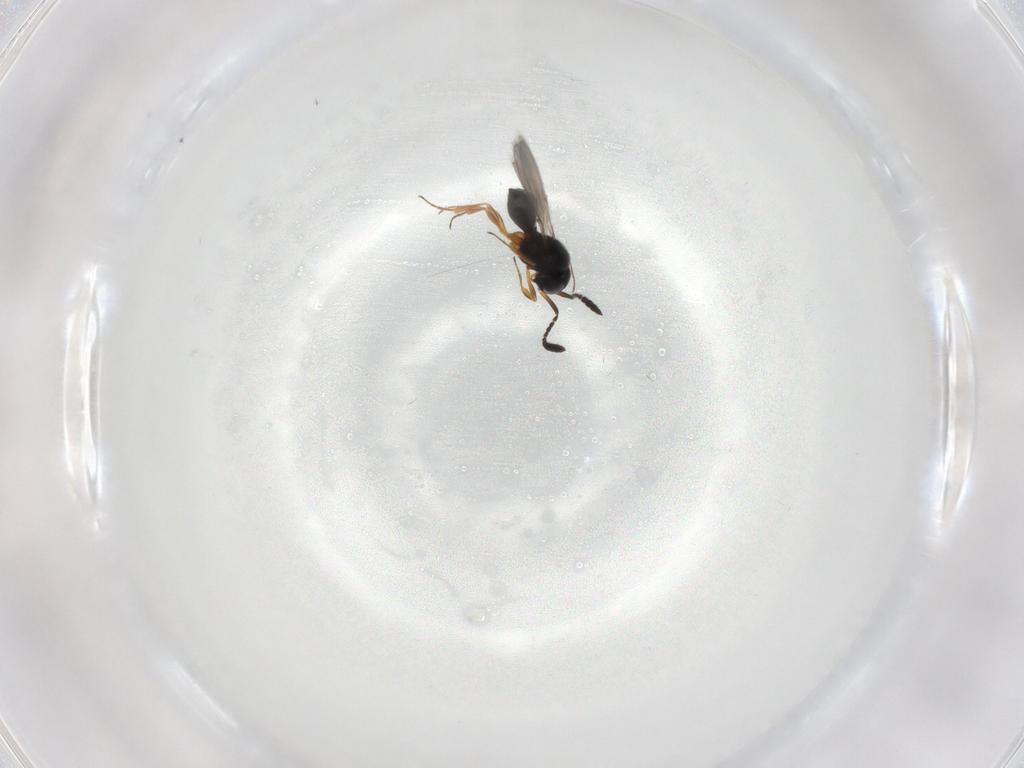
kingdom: Animalia
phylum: Arthropoda
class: Insecta
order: Hymenoptera
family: Scelionidae
